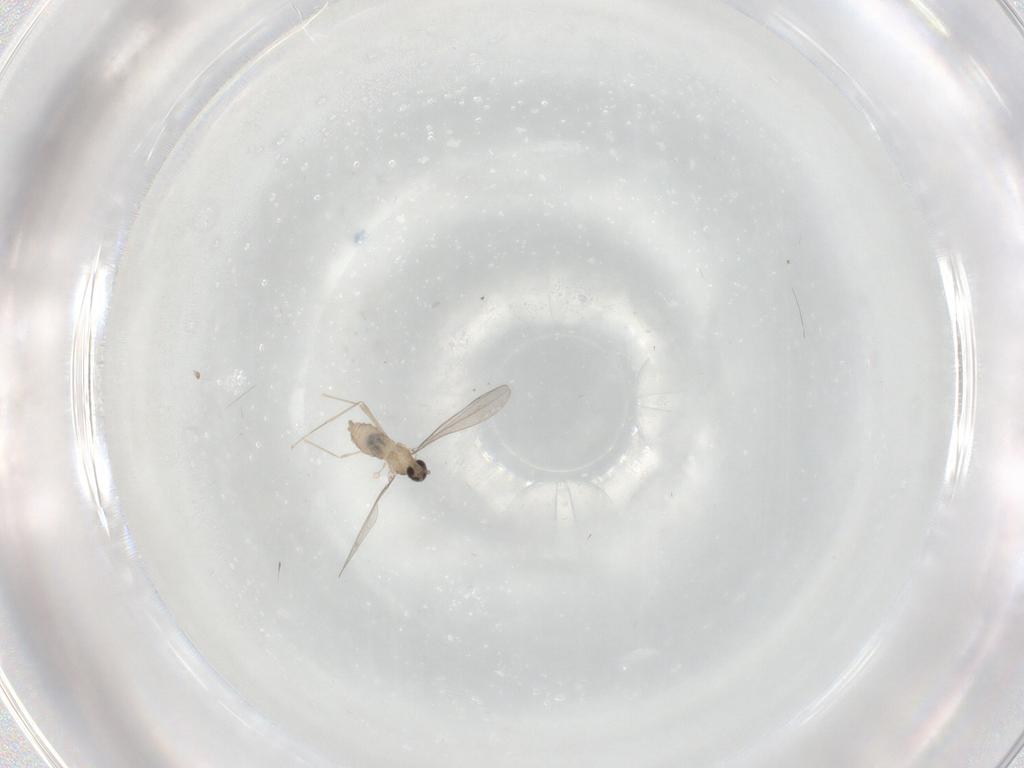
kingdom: Animalia
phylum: Arthropoda
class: Insecta
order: Diptera
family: Cecidomyiidae
